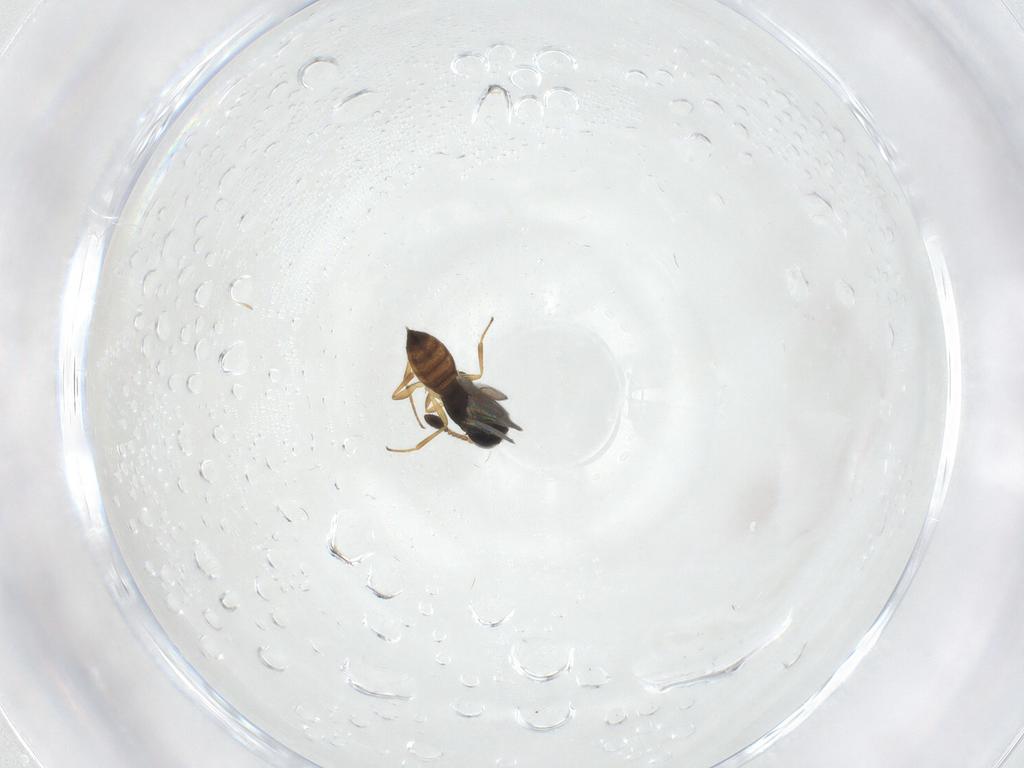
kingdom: Animalia
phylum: Arthropoda
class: Insecta
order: Hymenoptera
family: Scelionidae
